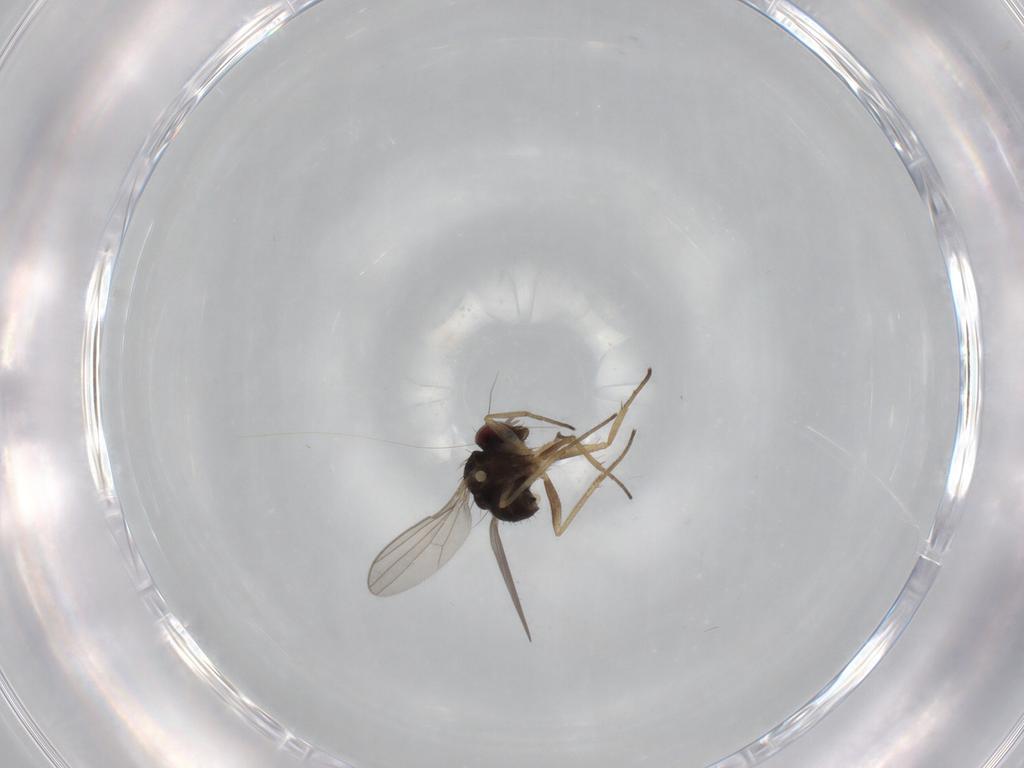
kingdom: Animalia
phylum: Arthropoda
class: Insecta
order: Diptera
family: Dolichopodidae
